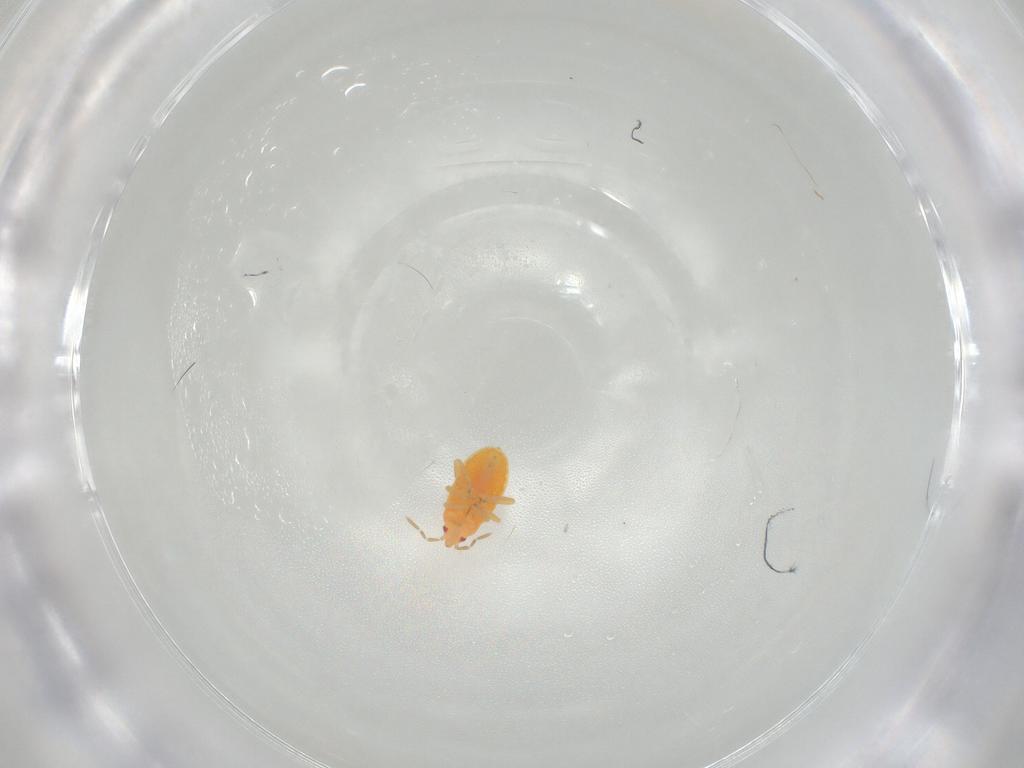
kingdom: Animalia
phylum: Arthropoda
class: Insecta
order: Hemiptera
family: Anthocoridae
